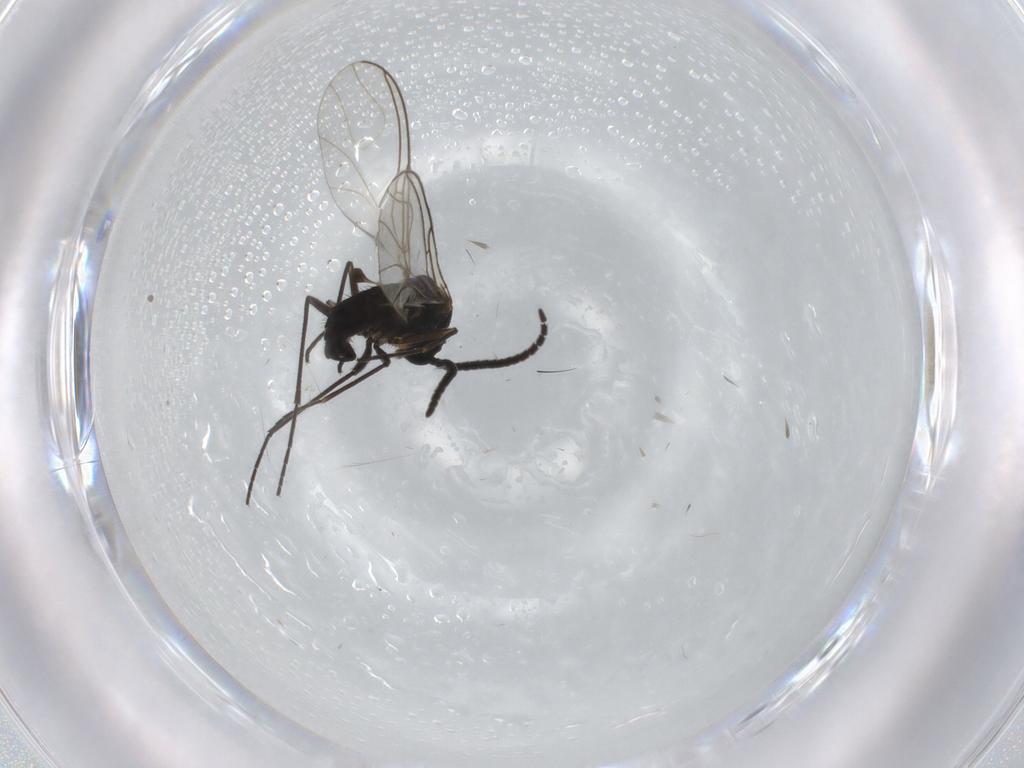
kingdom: Animalia
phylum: Arthropoda
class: Insecta
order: Diptera
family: Sciaridae
